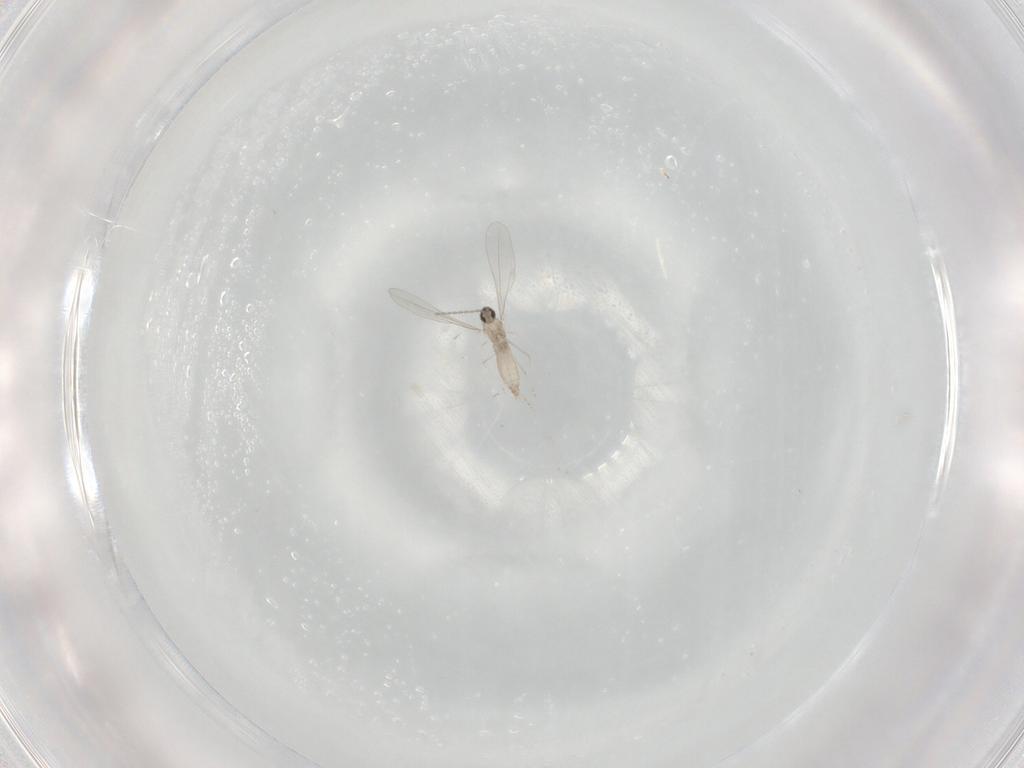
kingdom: Animalia
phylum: Arthropoda
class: Insecta
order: Diptera
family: Cecidomyiidae
